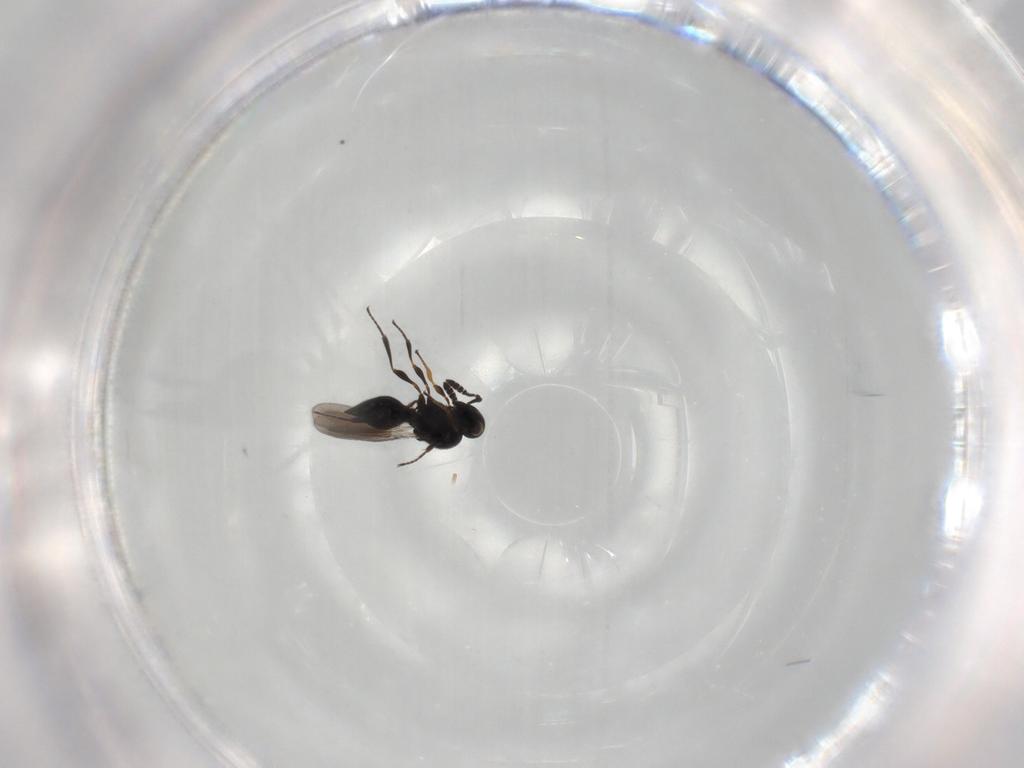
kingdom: Animalia
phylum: Arthropoda
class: Insecta
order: Hymenoptera
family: Platygastridae
